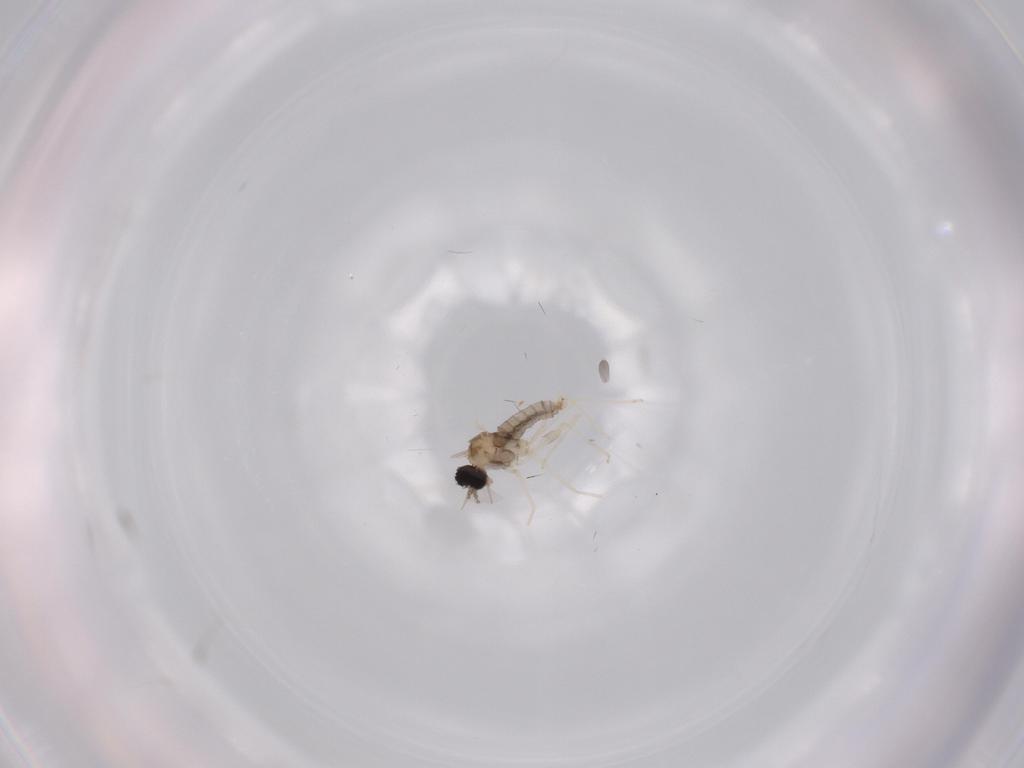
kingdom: Animalia
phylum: Arthropoda
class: Insecta
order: Diptera
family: Cecidomyiidae
